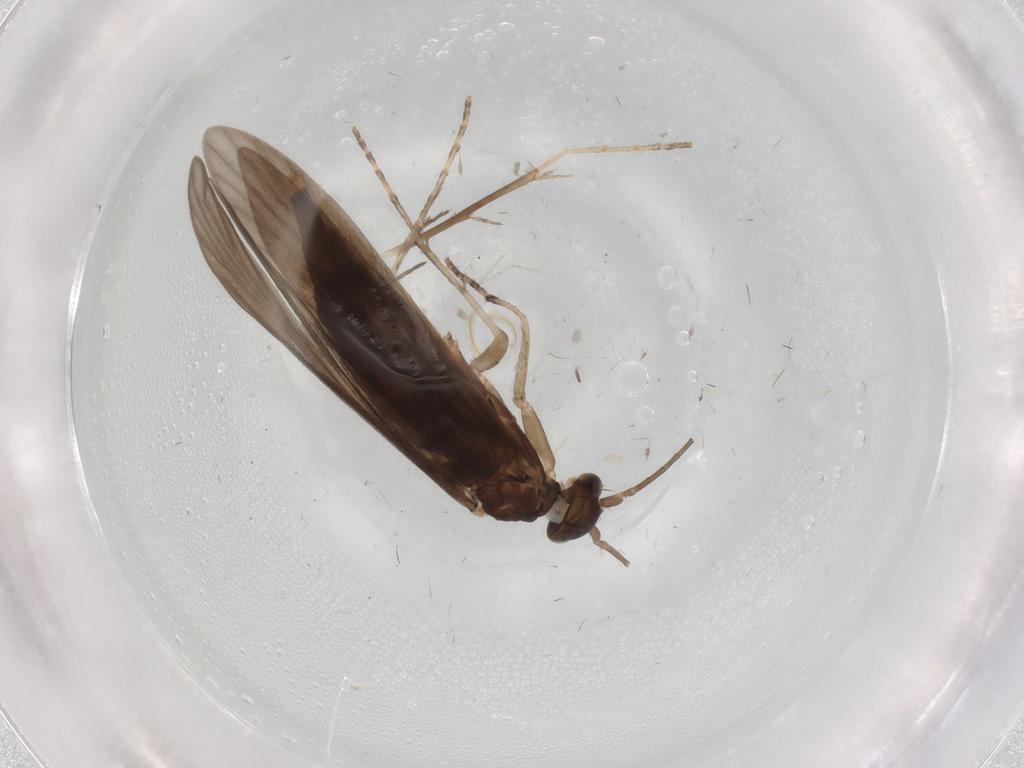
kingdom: Animalia
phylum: Arthropoda
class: Insecta
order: Trichoptera
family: Xiphocentronidae
